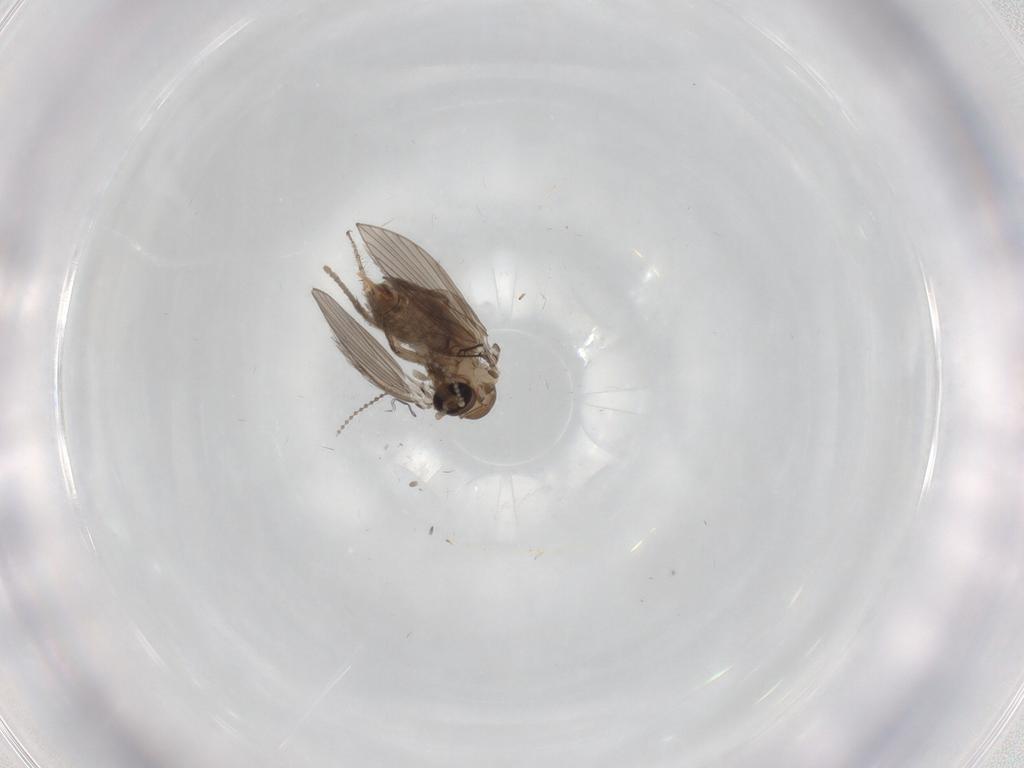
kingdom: Animalia
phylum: Arthropoda
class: Insecta
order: Diptera
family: Psychodidae
